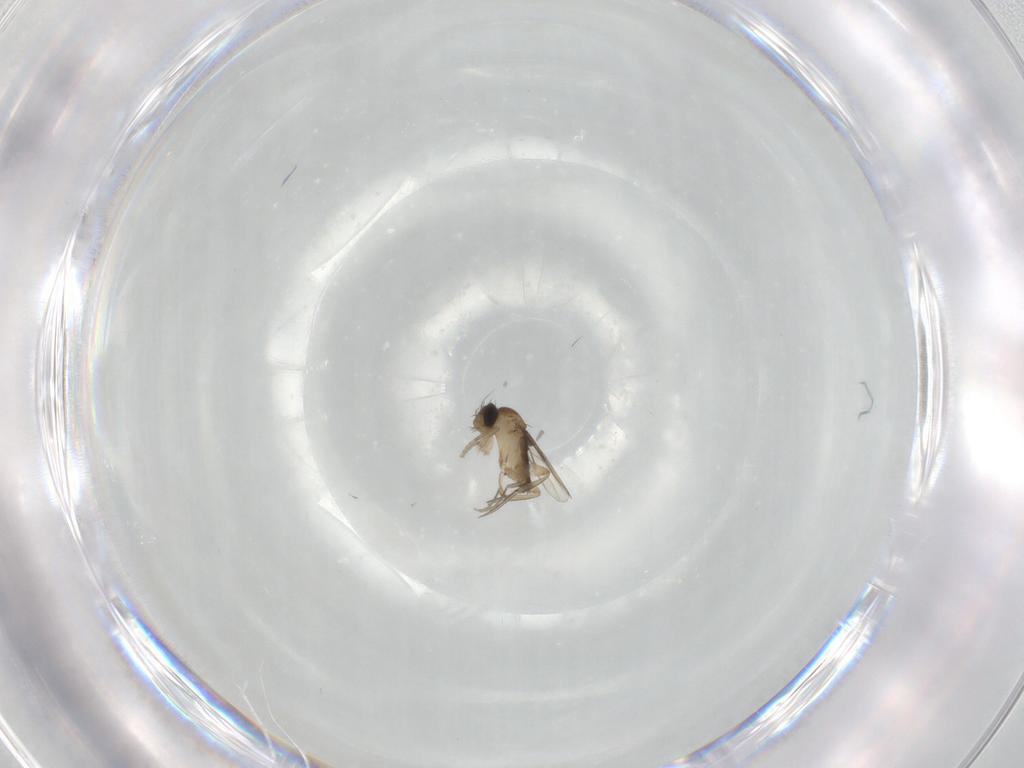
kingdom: Animalia
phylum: Arthropoda
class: Insecta
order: Diptera
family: Phoridae
